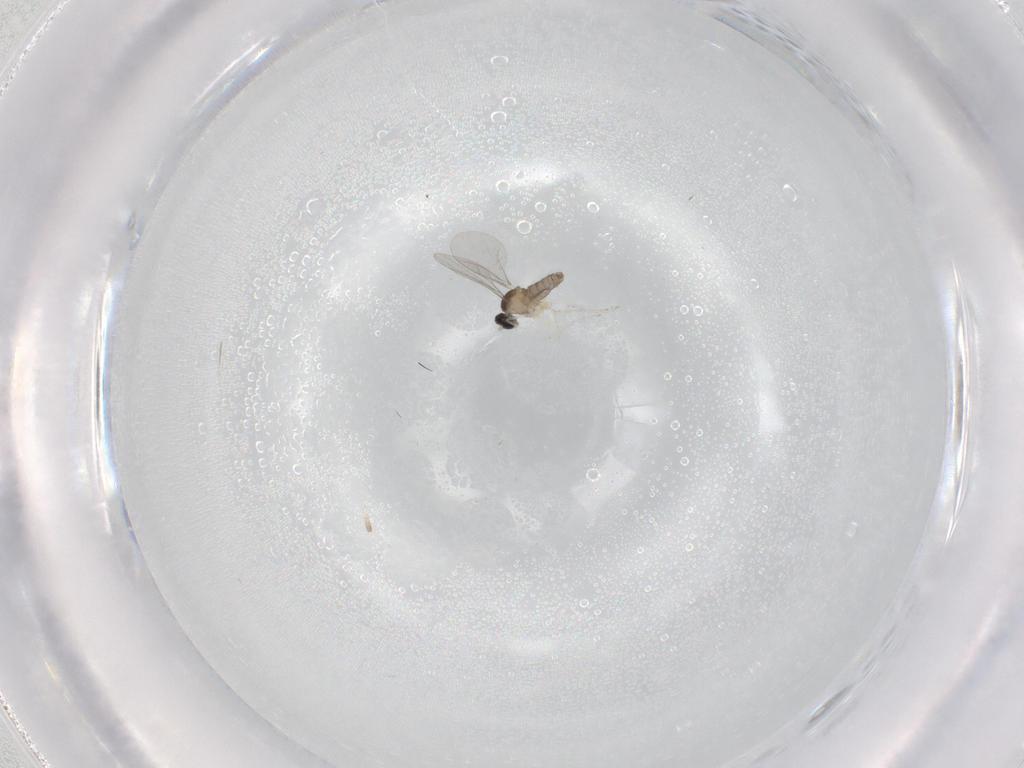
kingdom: Animalia
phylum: Arthropoda
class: Insecta
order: Diptera
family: Cecidomyiidae
